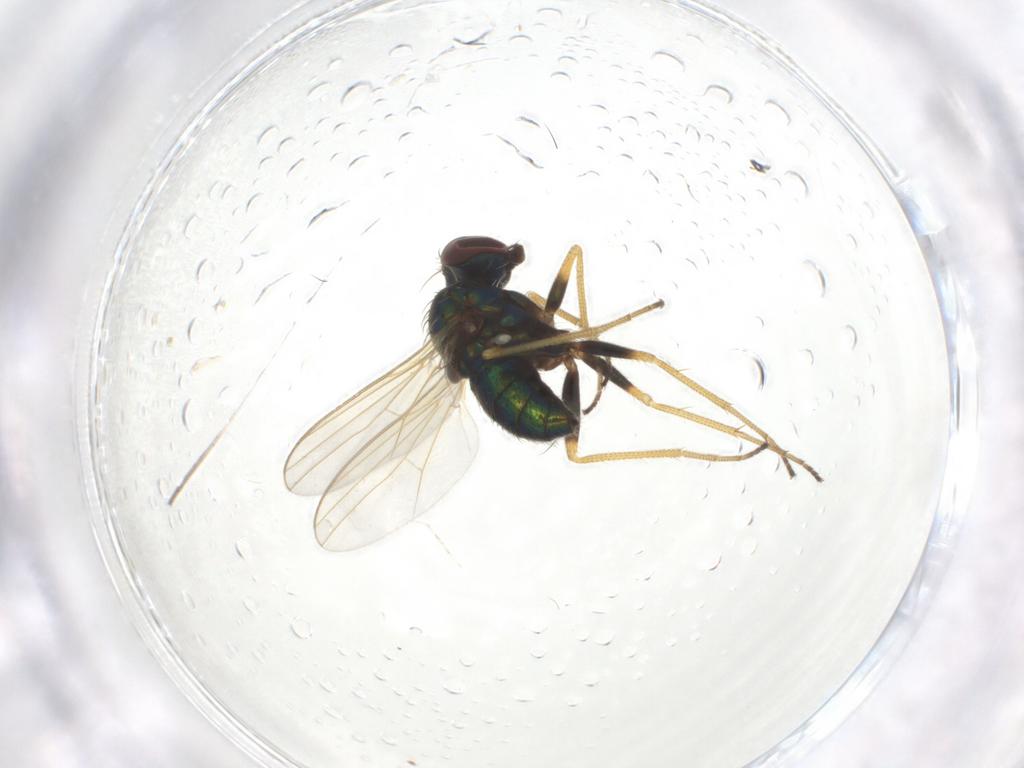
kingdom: Animalia
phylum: Arthropoda
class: Insecta
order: Diptera
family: Dolichopodidae
